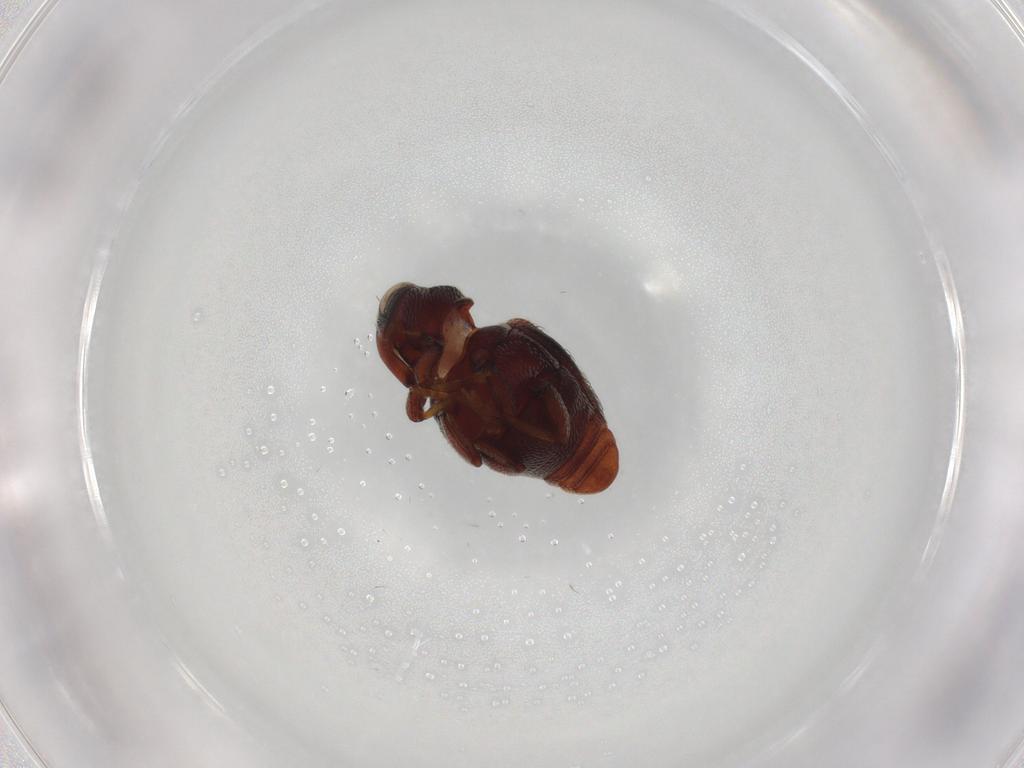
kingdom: Animalia
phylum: Arthropoda
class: Insecta
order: Coleoptera
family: Curculionidae
